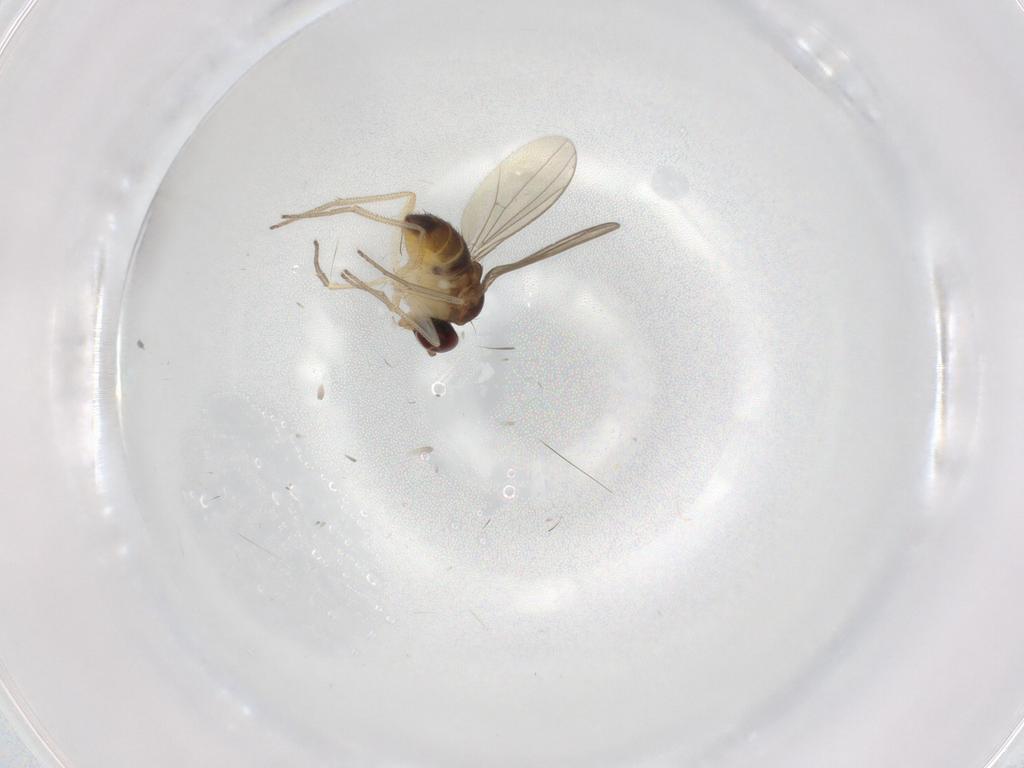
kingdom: Animalia
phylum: Arthropoda
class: Insecta
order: Diptera
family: Dolichopodidae
